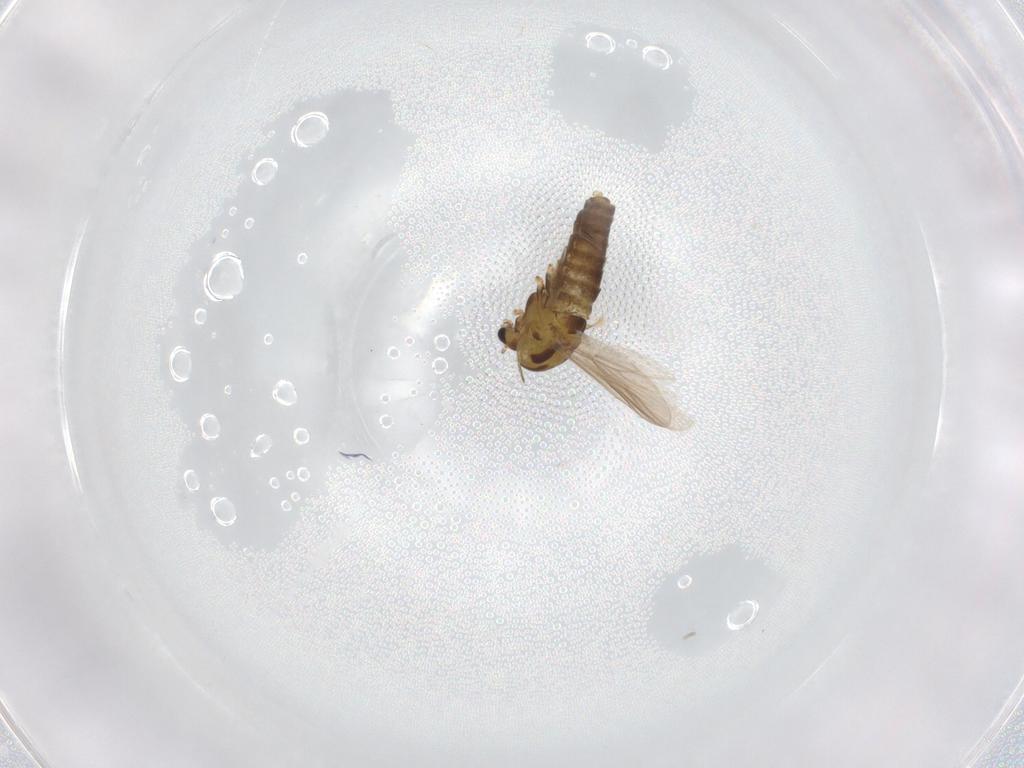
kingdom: Animalia
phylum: Arthropoda
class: Insecta
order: Diptera
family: Chironomidae
